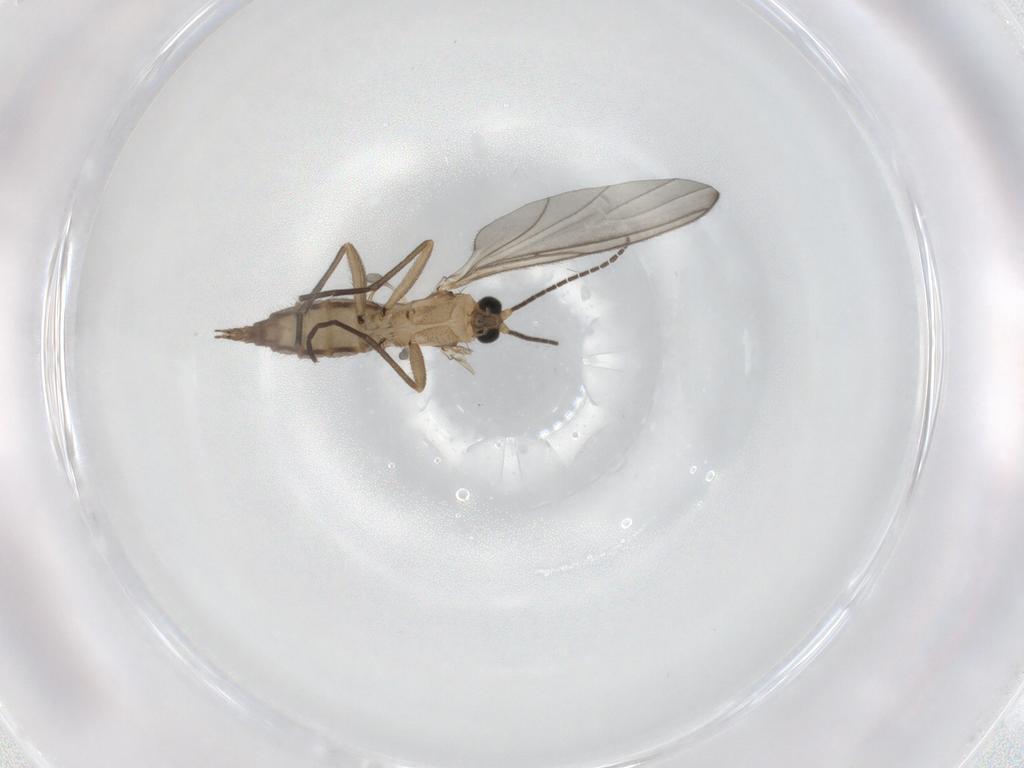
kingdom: Animalia
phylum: Arthropoda
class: Insecta
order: Diptera
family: Sciaridae
